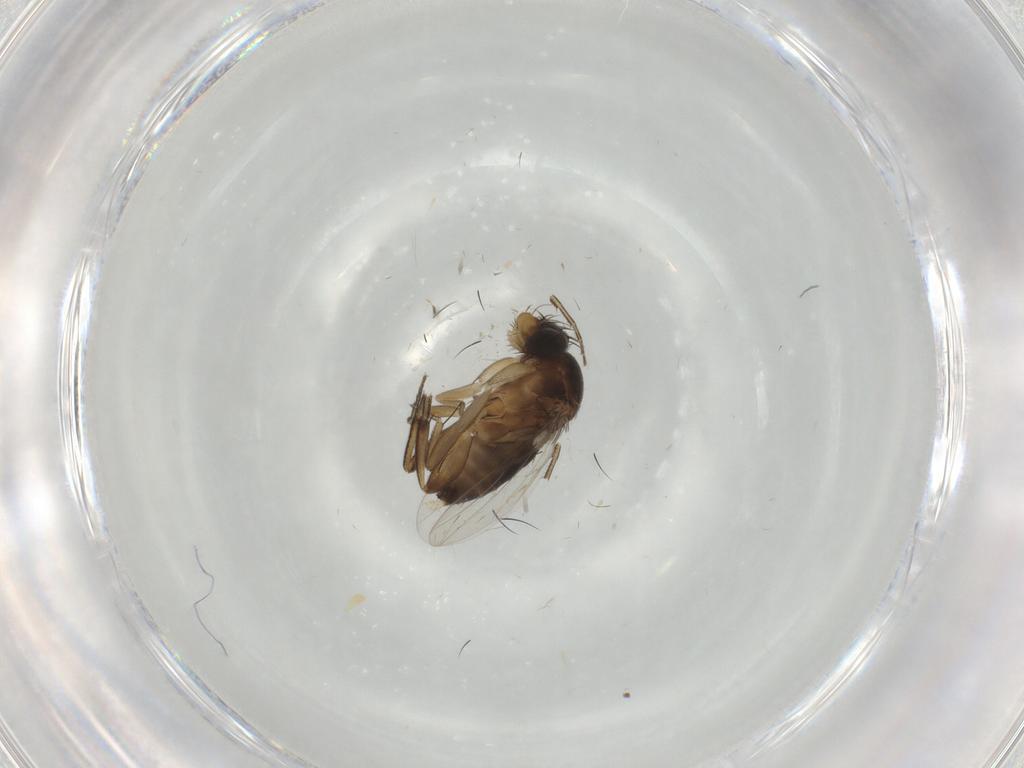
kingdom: Animalia
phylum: Arthropoda
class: Insecta
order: Diptera
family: Phoridae
